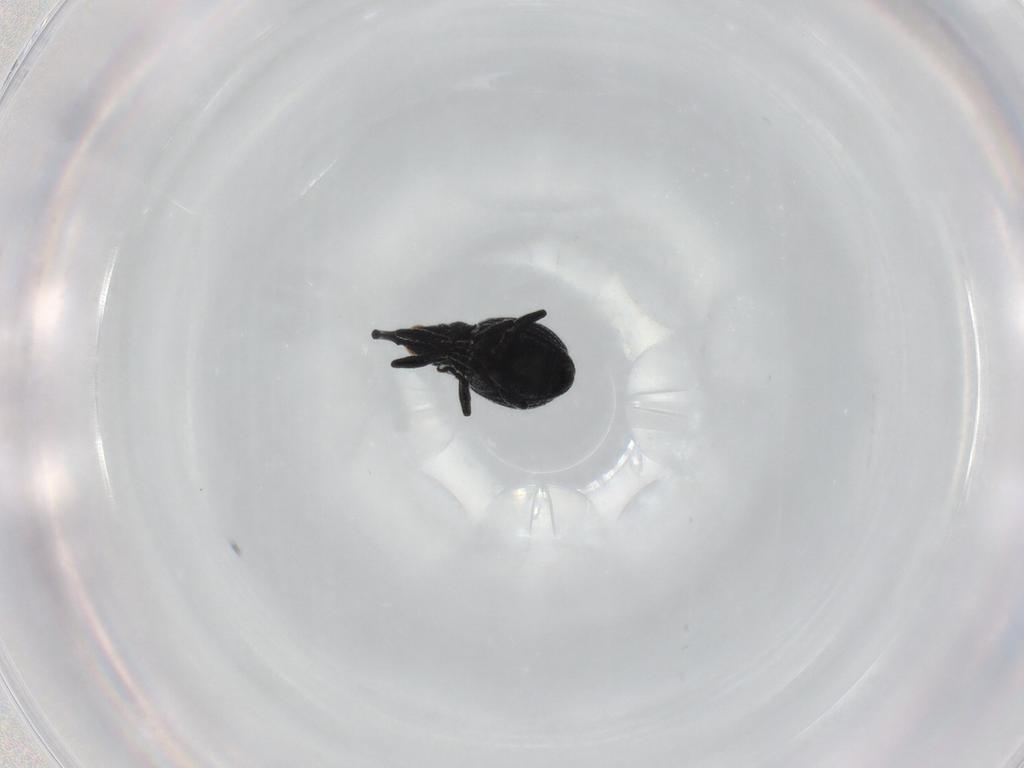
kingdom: Animalia
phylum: Arthropoda
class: Insecta
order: Coleoptera
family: Brentidae
